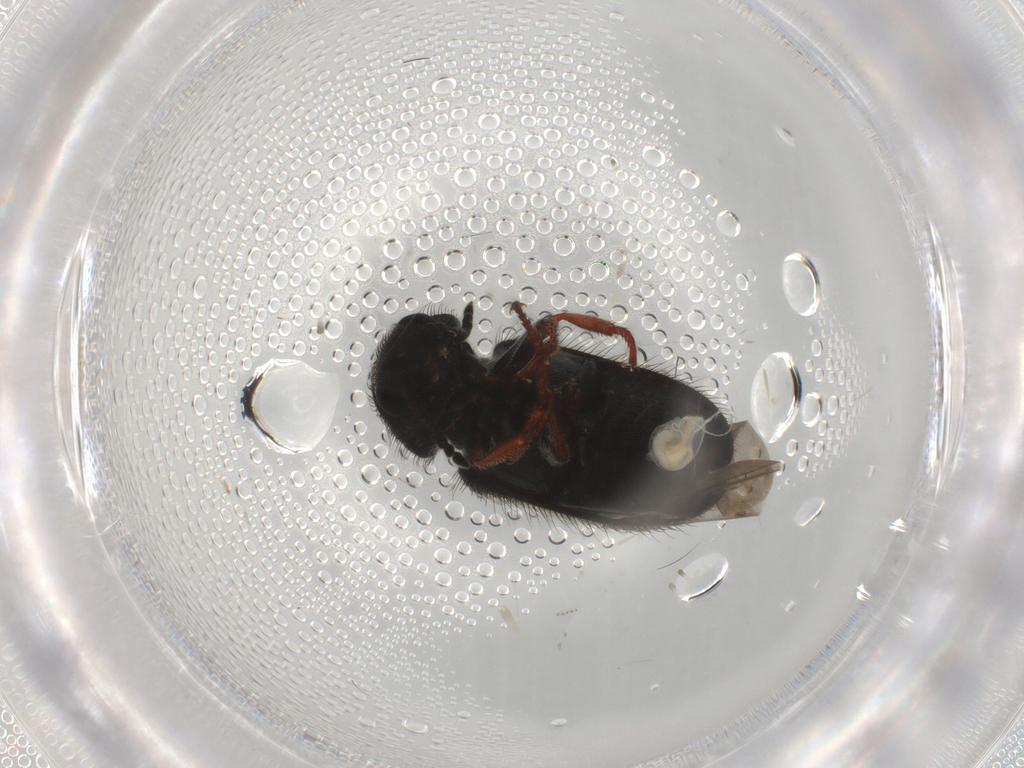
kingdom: Animalia
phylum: Arthropoda
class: Insecta
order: Coleoptera
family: Melyridae
